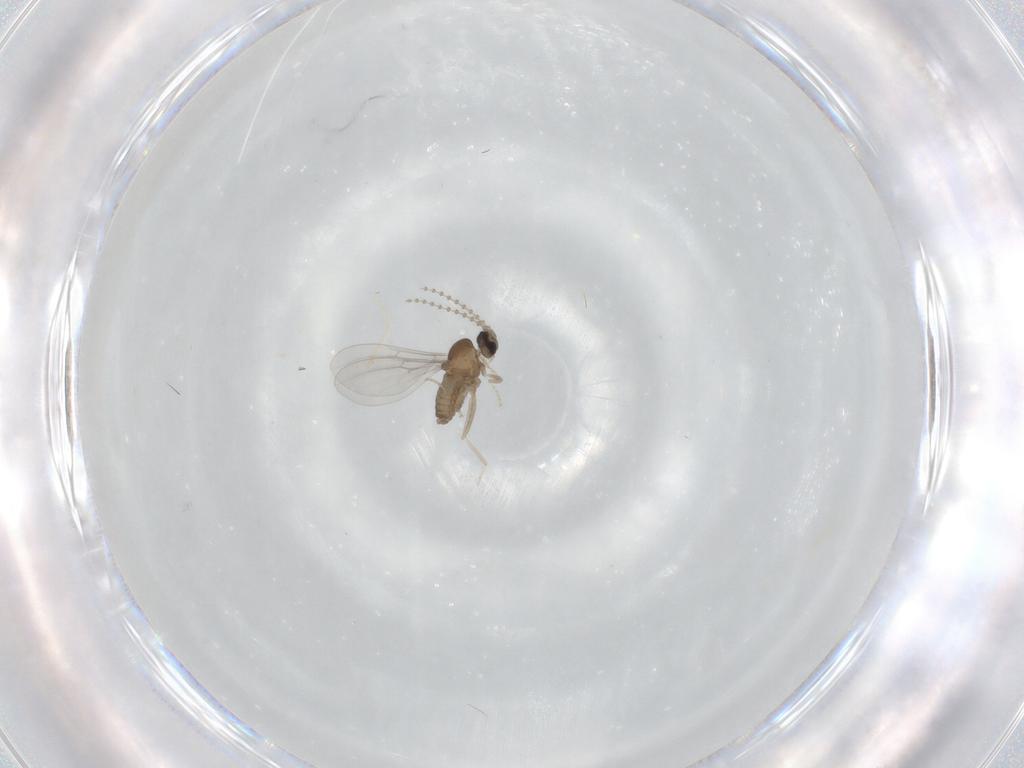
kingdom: Animalia
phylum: Arthropoda
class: Insecta
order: Diptera
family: Cecidomyiidae
